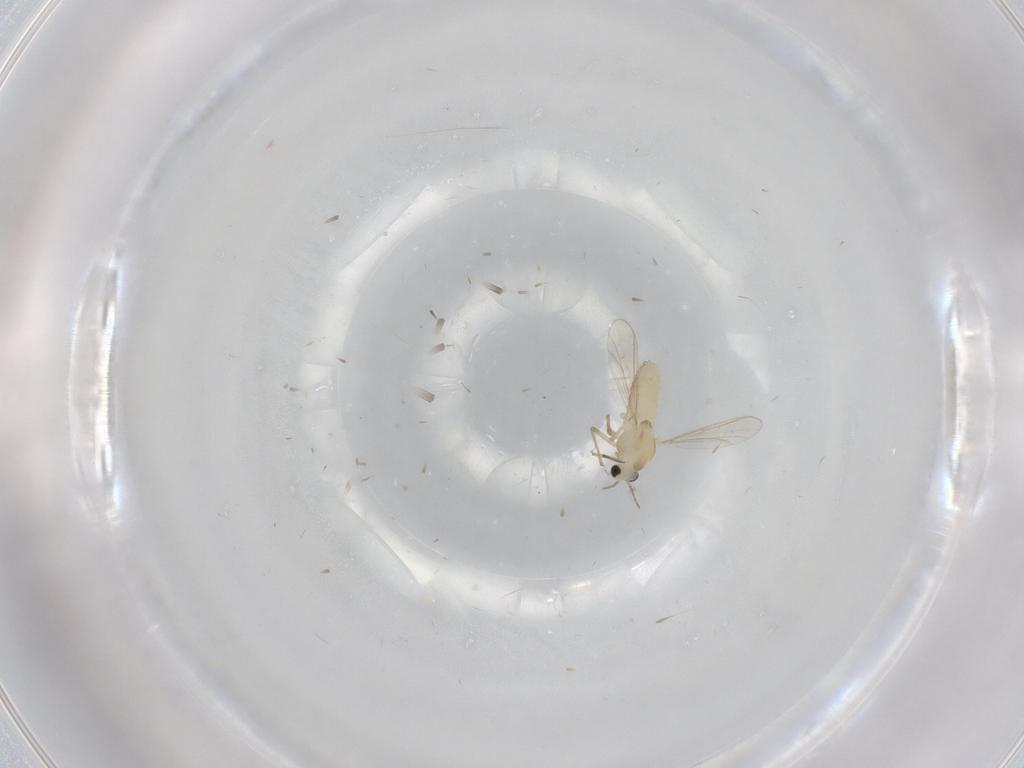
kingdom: Animalia
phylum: Arthropoda
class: Insecta
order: Diptera
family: Chironomidae
